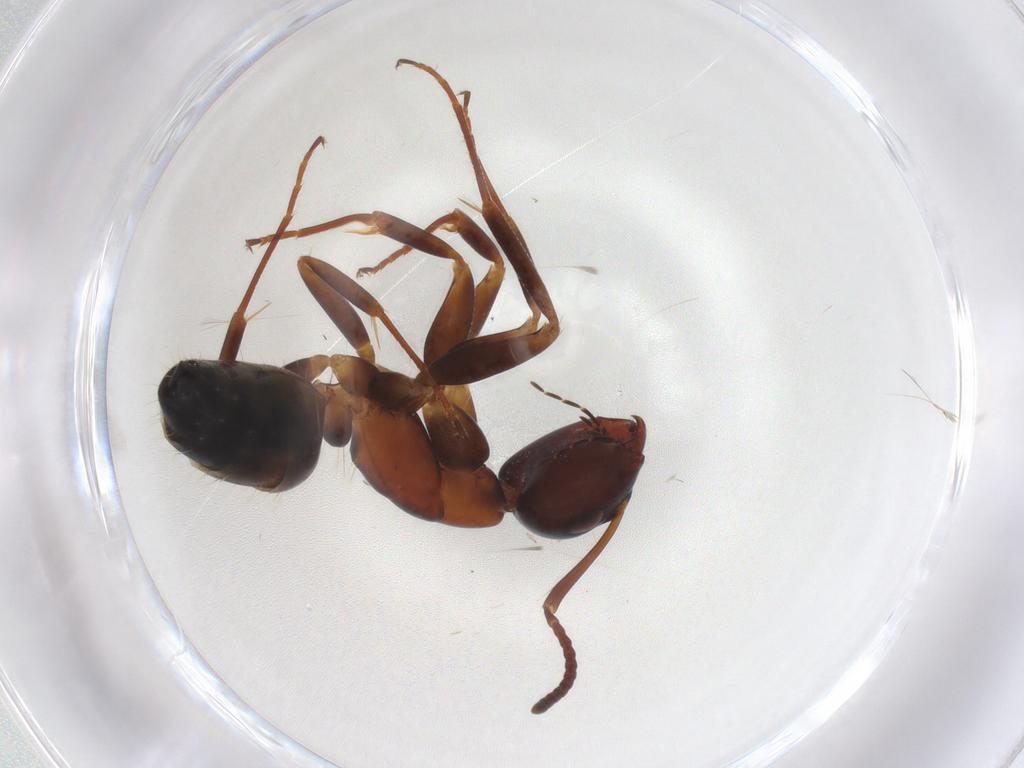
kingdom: Animalia
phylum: Arthropoda
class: Insecta
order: Hymenoptera
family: Formicidae
